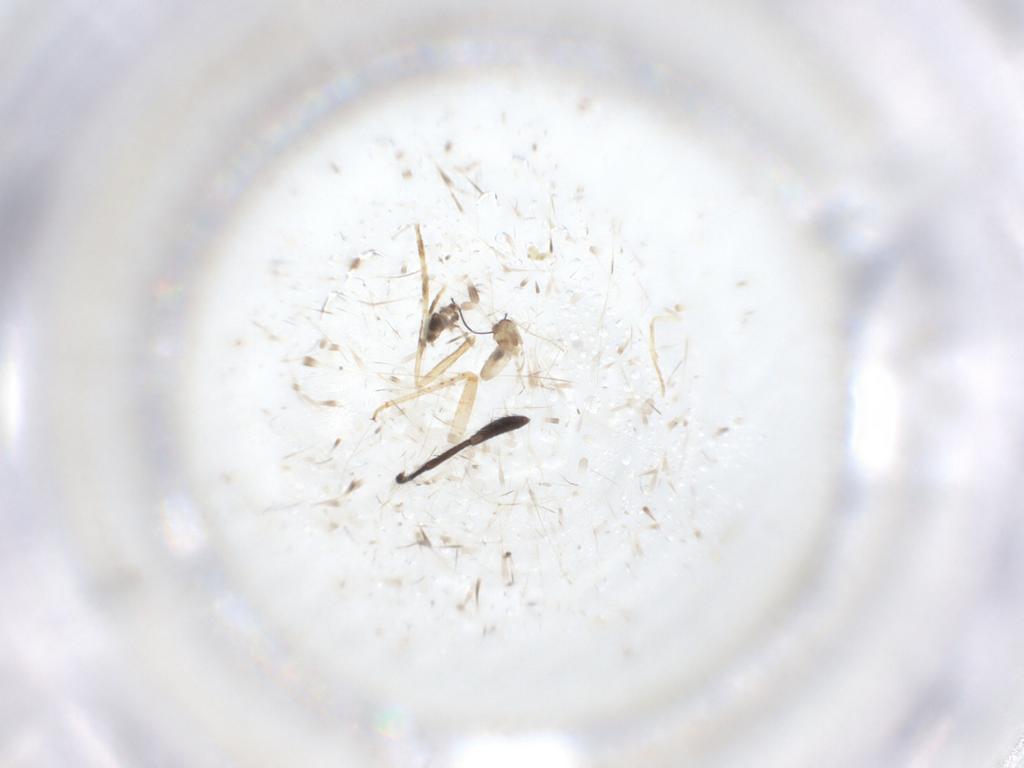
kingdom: Animalia
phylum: Arthropoda
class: Insecta
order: Diptera
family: Cecidomyiidae
